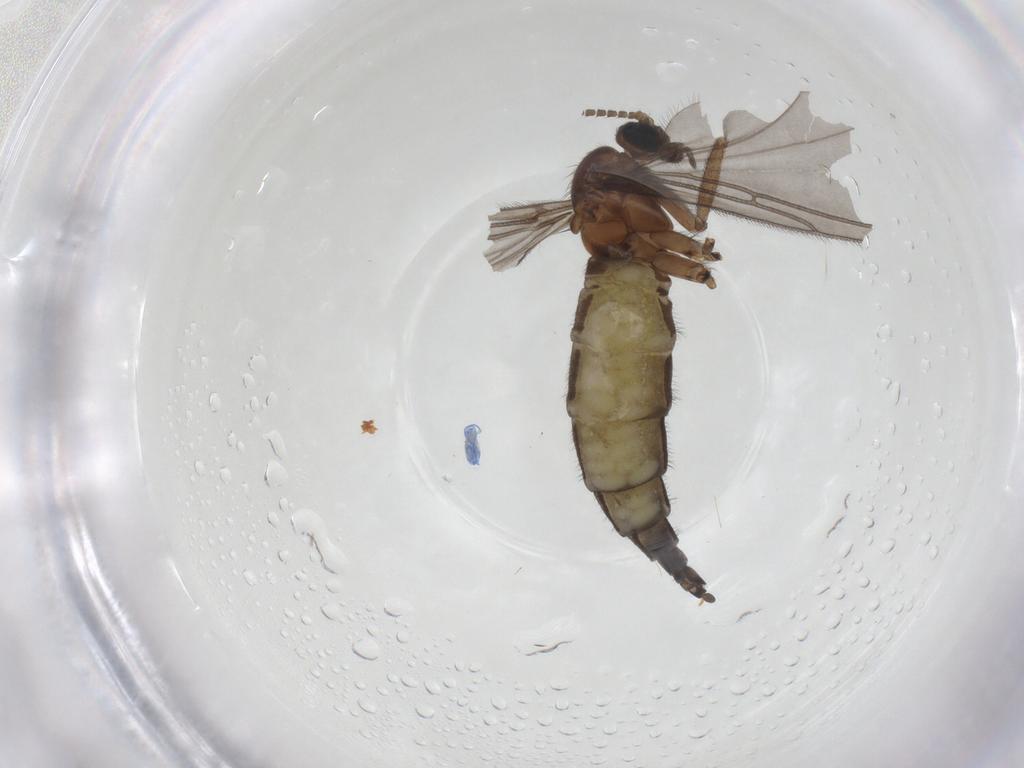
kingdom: Animalia
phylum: Arthropoda
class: Insecta
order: Diptera
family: Sciaridae
